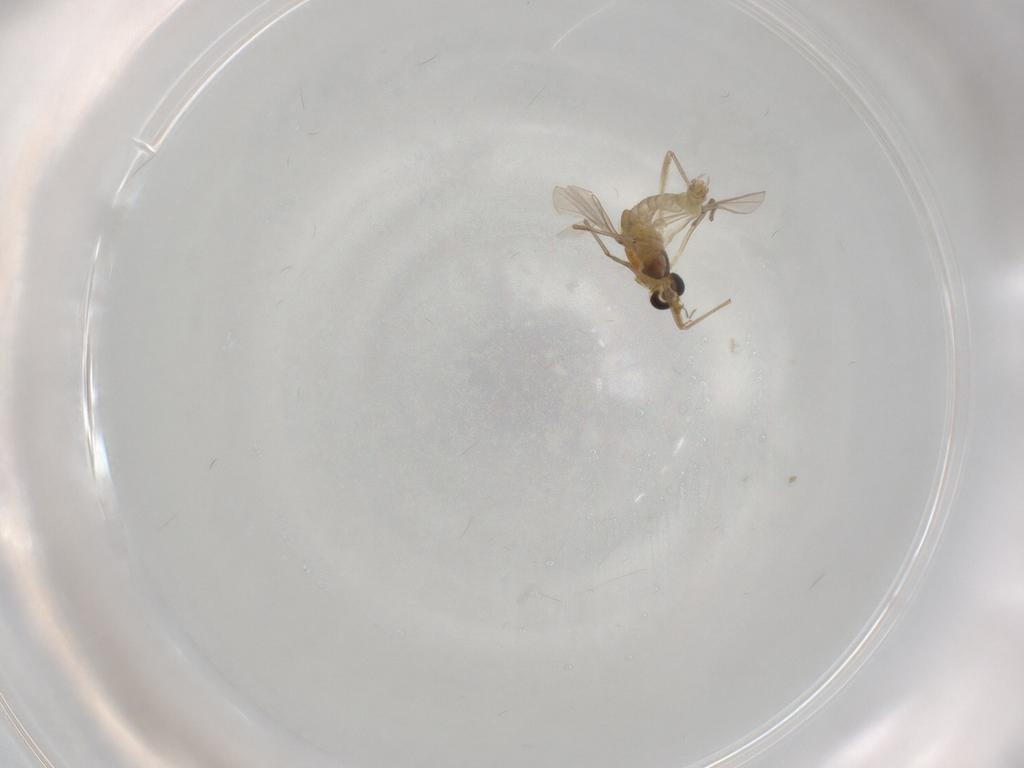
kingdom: Animalia
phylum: Arthropoda
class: Insecta
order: Diptera
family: Chironomidae
